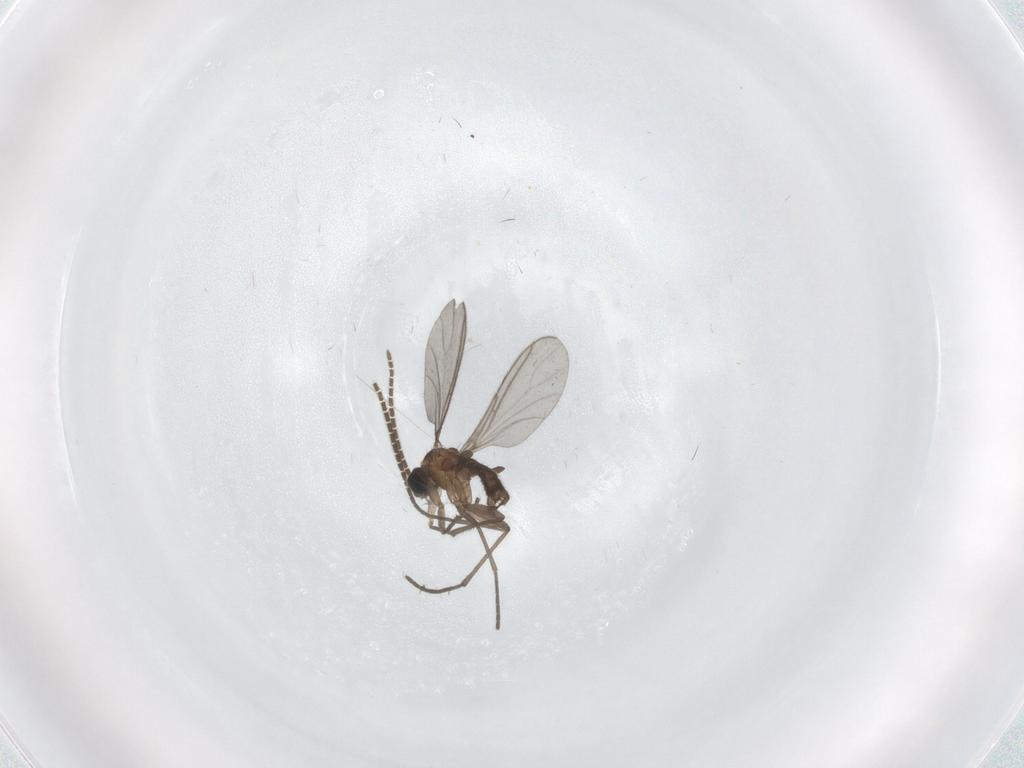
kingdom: Animalia
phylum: Arthropoda
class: Insecta
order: Diptera
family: Sciaridae
